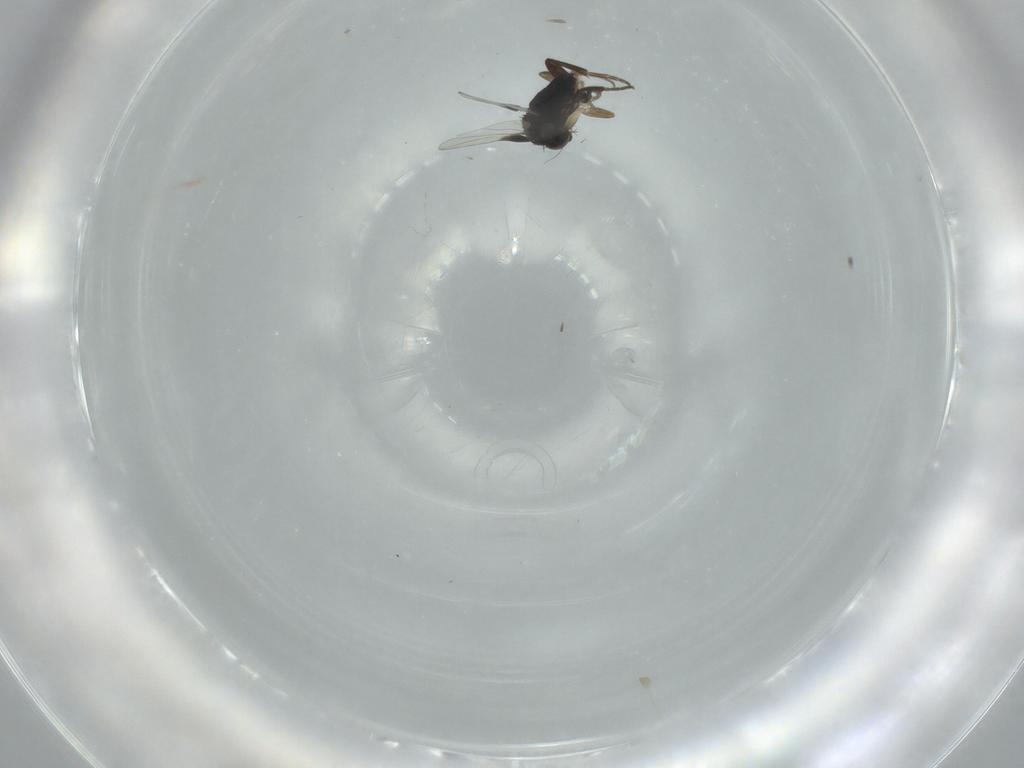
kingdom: Animalia
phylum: Arthropoda
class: Insecta
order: Diptera
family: Phoridae
